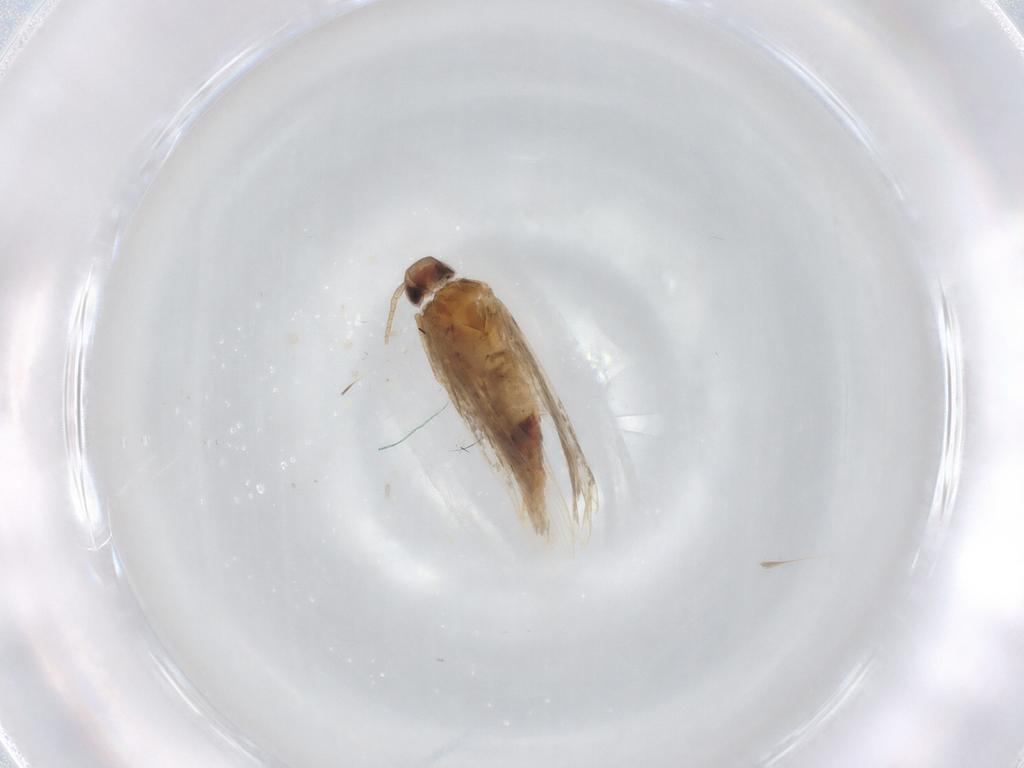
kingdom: Animalia
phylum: Arthropoda
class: Insecta
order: Lepidoptera
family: Gelechiidae
